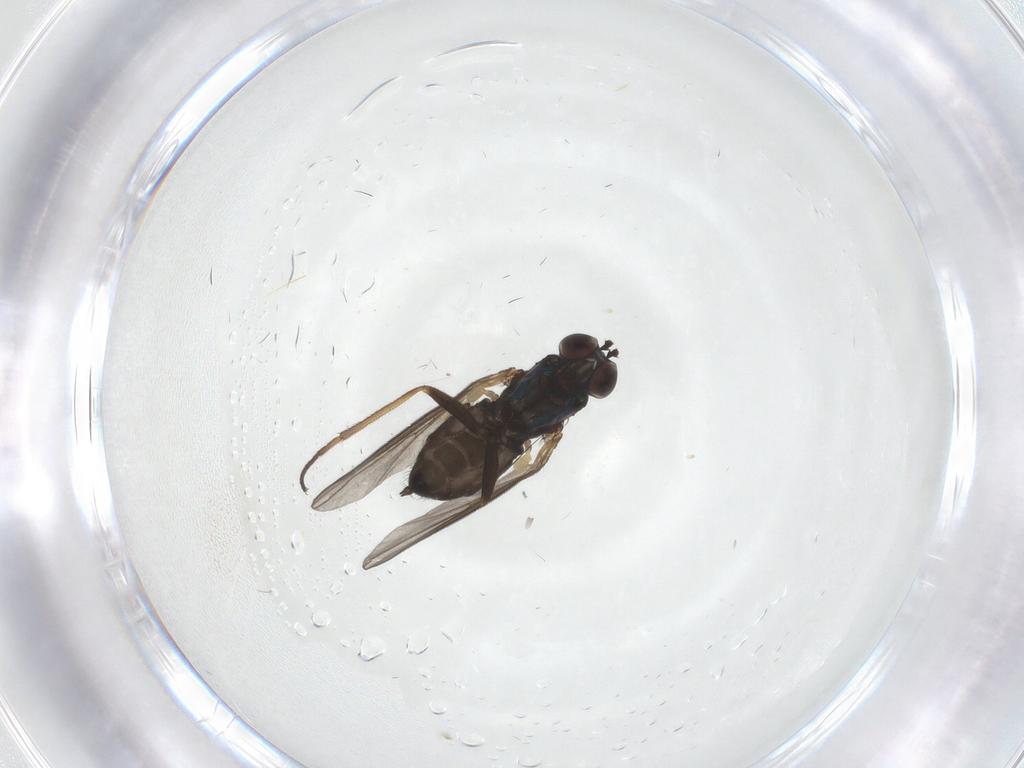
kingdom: Animalia
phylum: Arthropoda
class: Insecta
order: Diptera
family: Dolichopodidae
